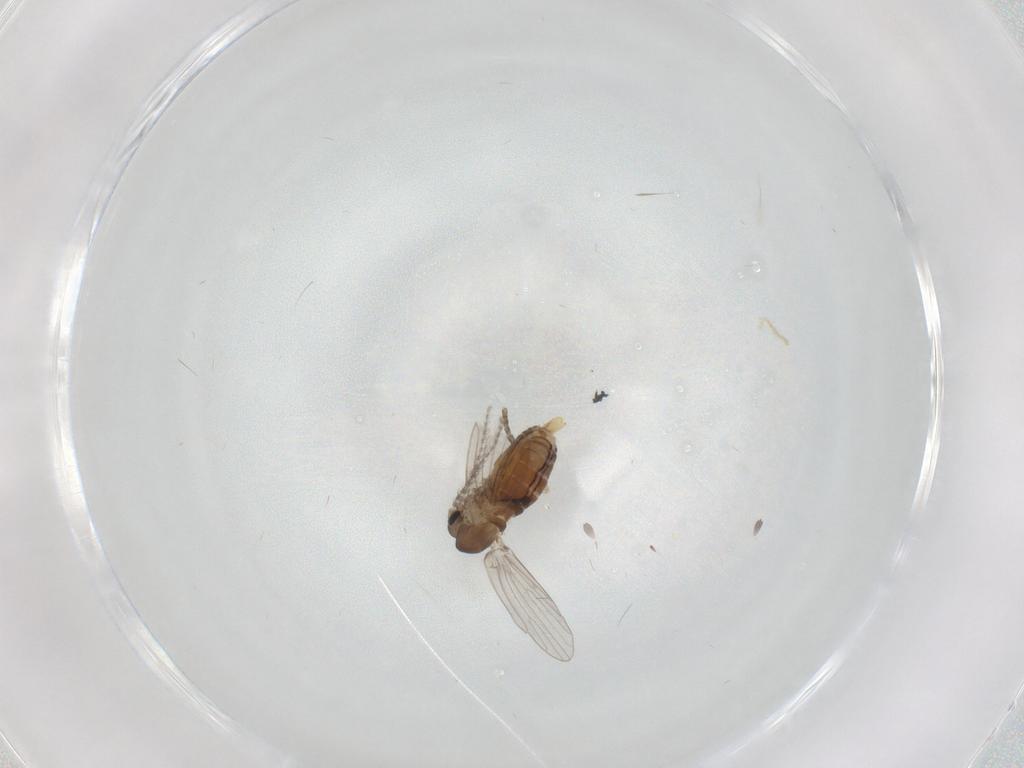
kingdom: Animalia
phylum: Arthropoda
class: Insecta
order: Diptera
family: Psychodidae
